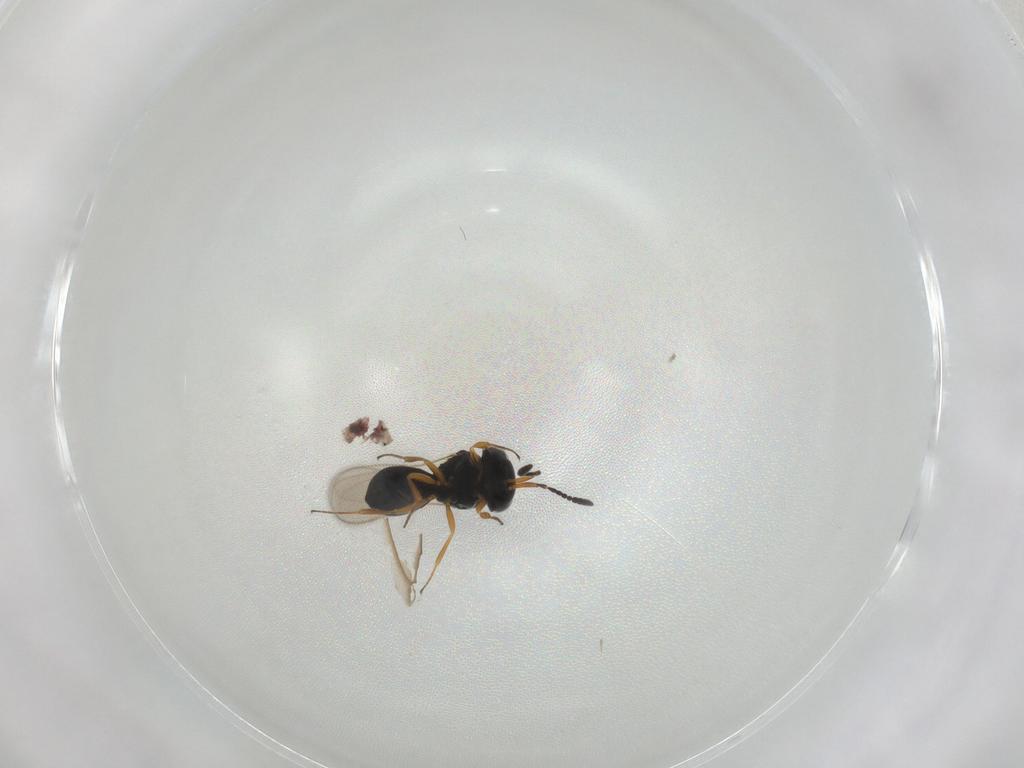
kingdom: Animalia
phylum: Arthropoda
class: Insecta
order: Hymenoptera
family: Scelionidae
